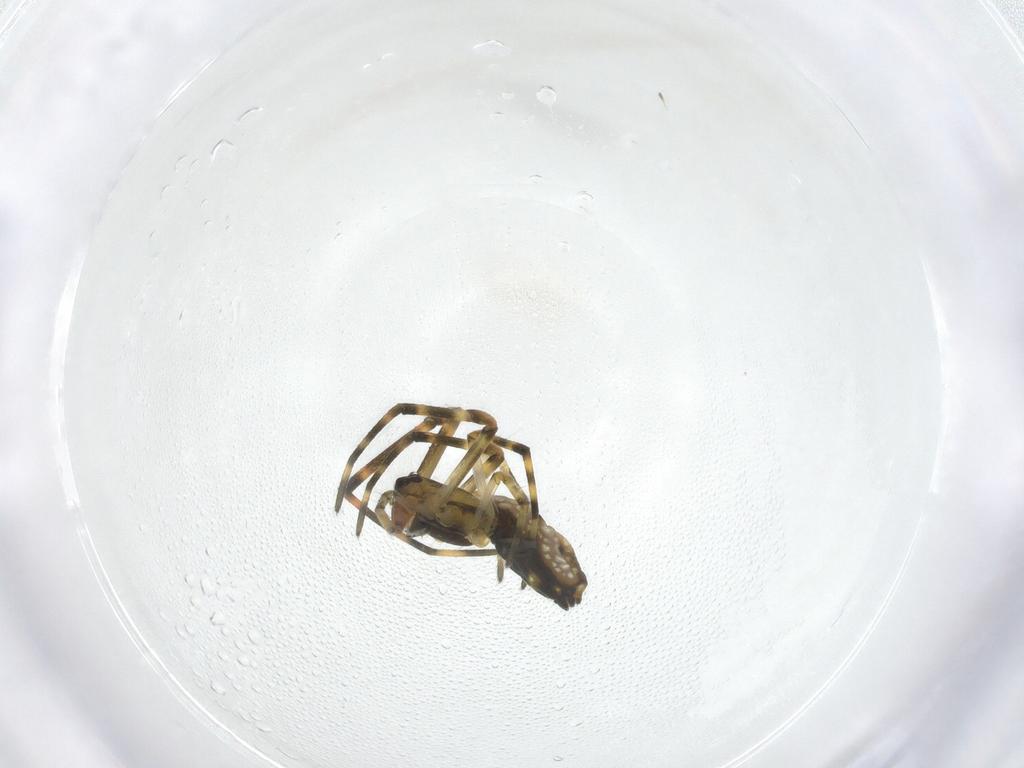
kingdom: Animalia
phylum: Arthropoda
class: Arachnida
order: Araneae
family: Tetragnathidae
